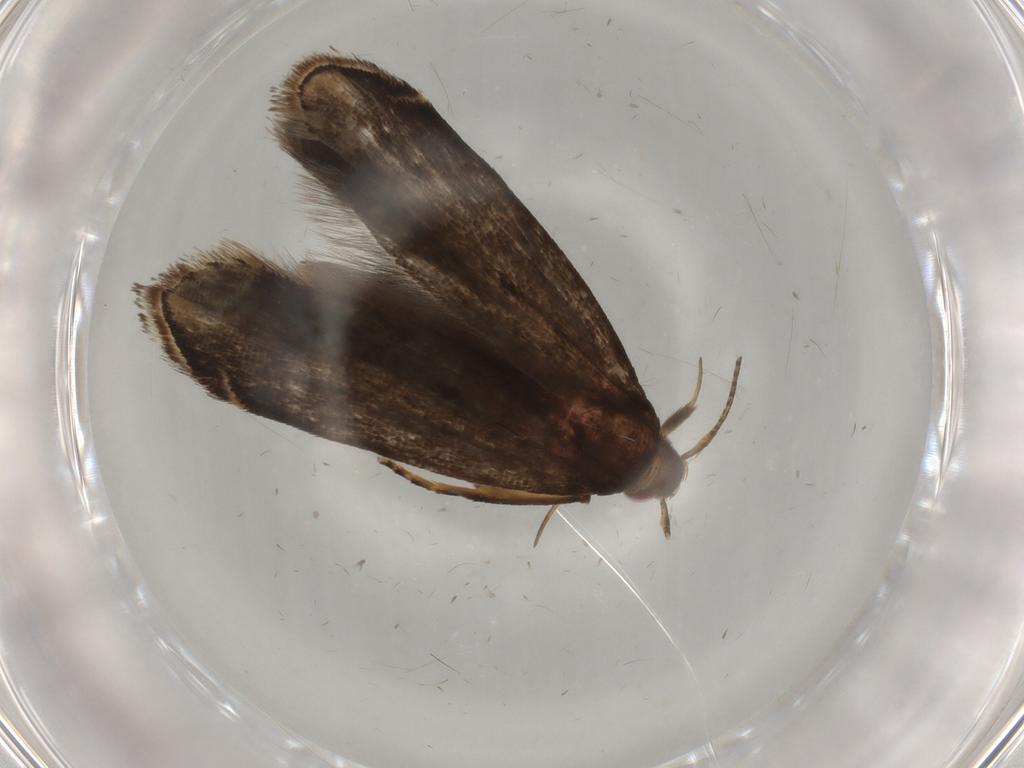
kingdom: Animalia
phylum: Arthropoda
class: Insecta
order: Lepidoptera
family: Gelechiidae
